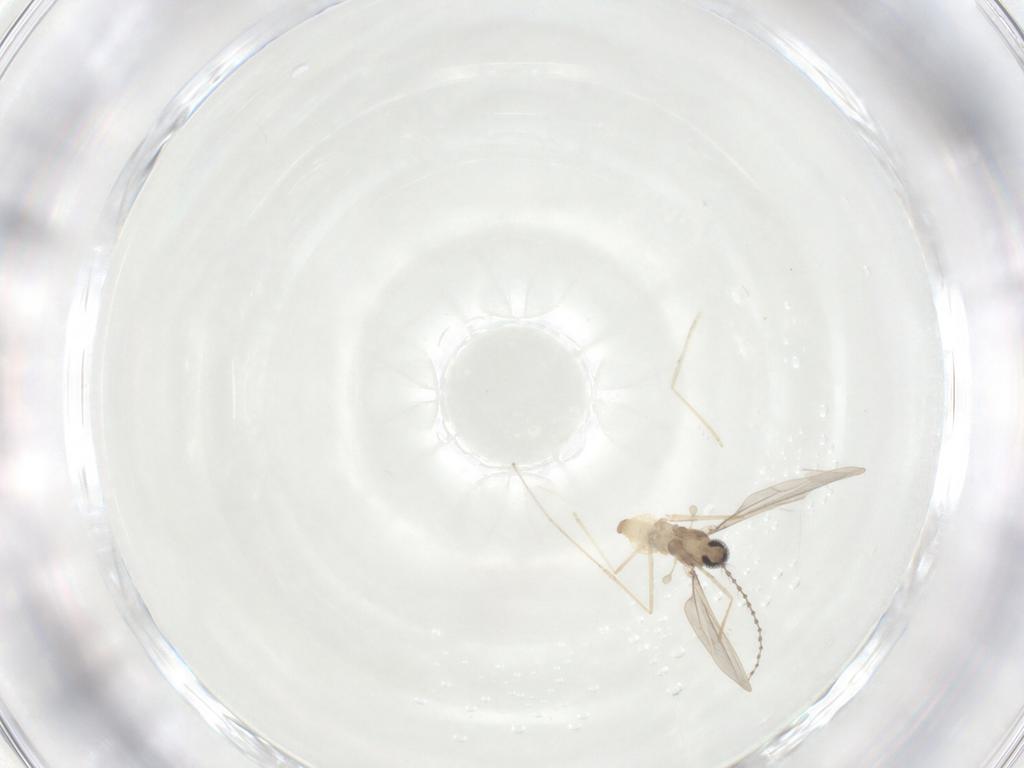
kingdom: Animalia
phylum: Arthropoda
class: Insecta
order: Diptera
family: Cecidomyiidae
